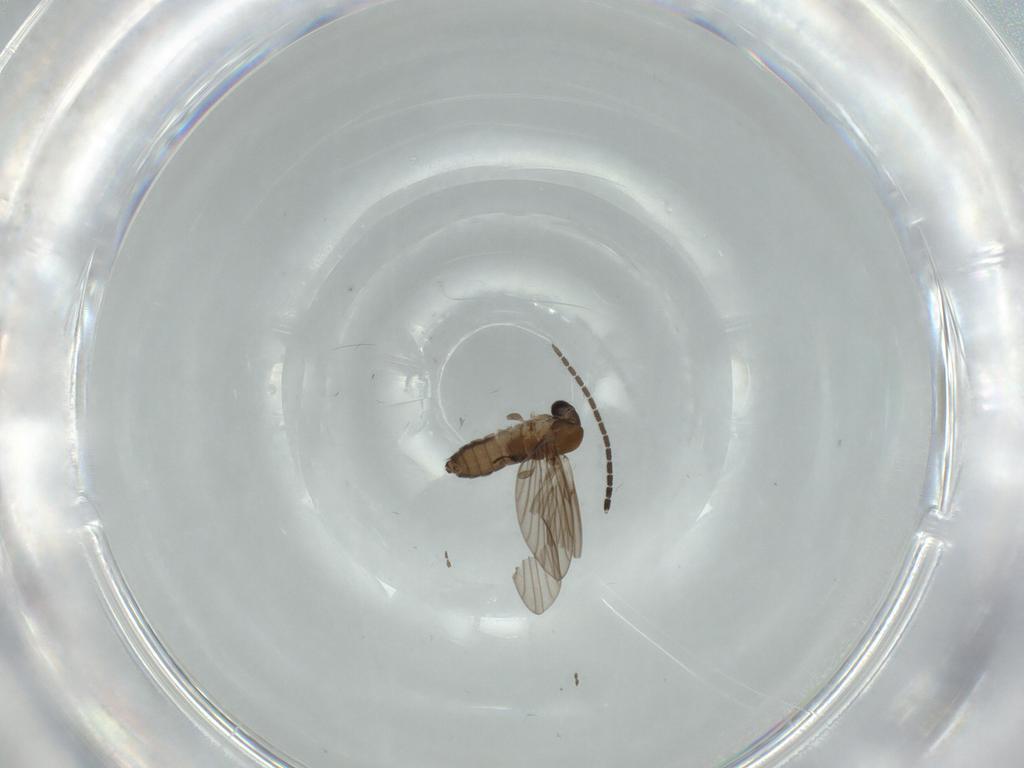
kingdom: Animalia
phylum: Arthropoda
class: Insecta
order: Diptera
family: Sciaridae
